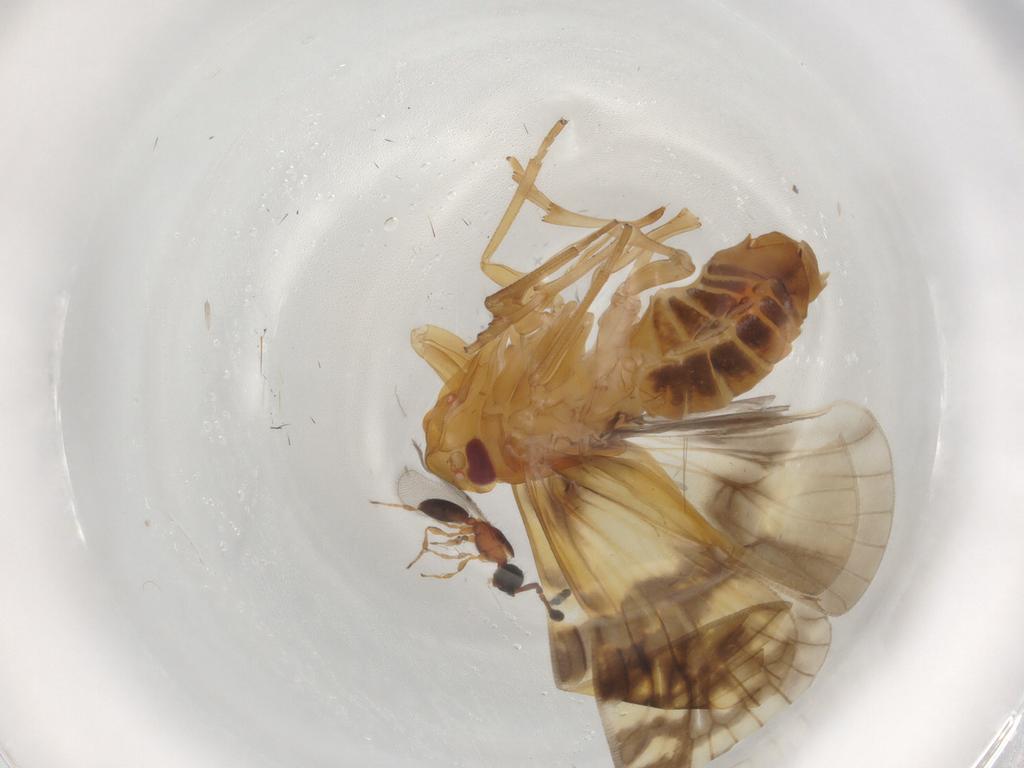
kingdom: Animalia
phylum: Arthropoda
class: Insecta
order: Hemiptera
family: Cixiidae
